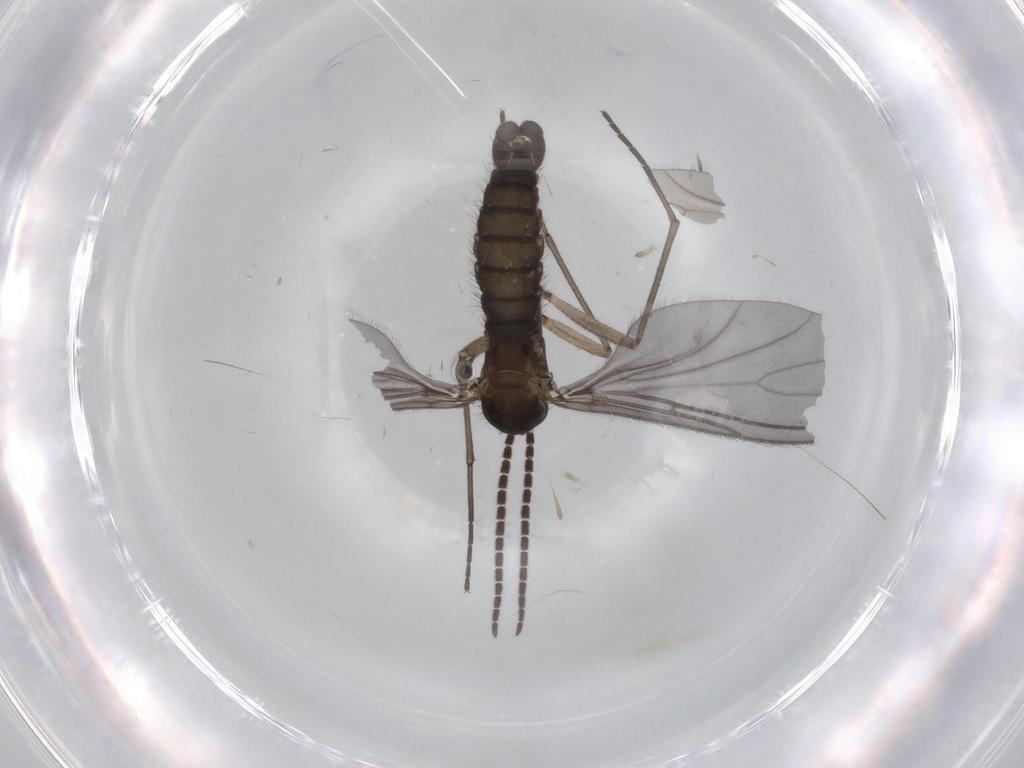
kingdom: Animalia
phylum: Arthropoda
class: Insecta
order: Diptera
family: Sciaridae
